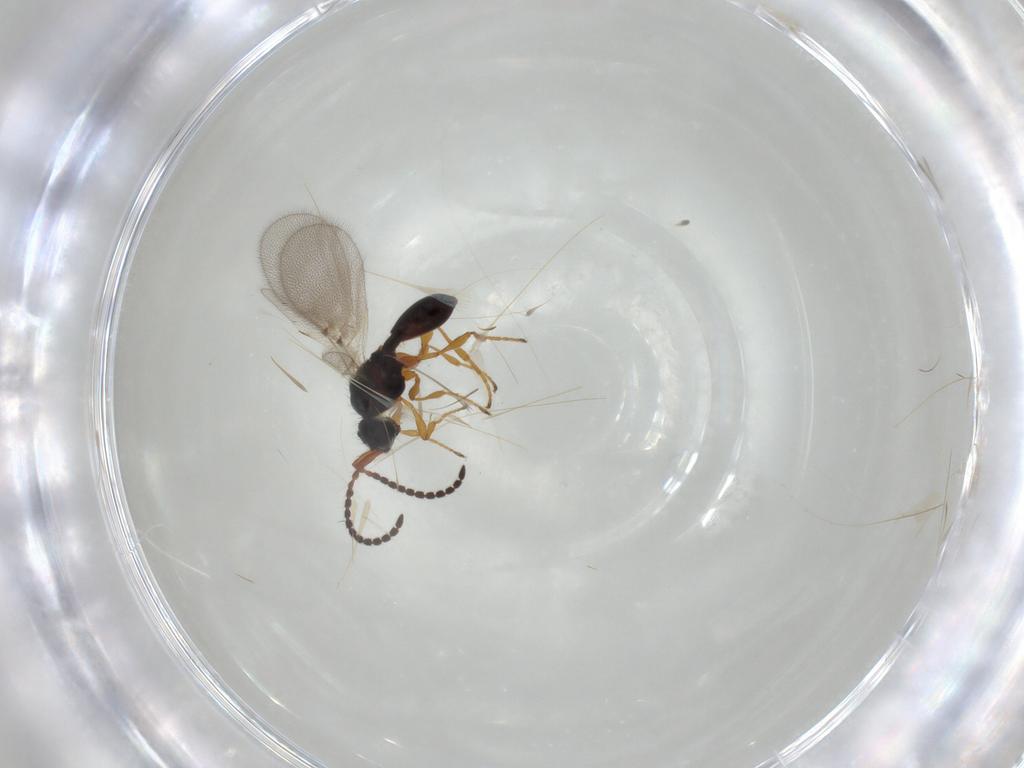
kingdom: Animalia
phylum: Arthropoda
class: Insecta
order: Hymenoptera
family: Diapriidae
